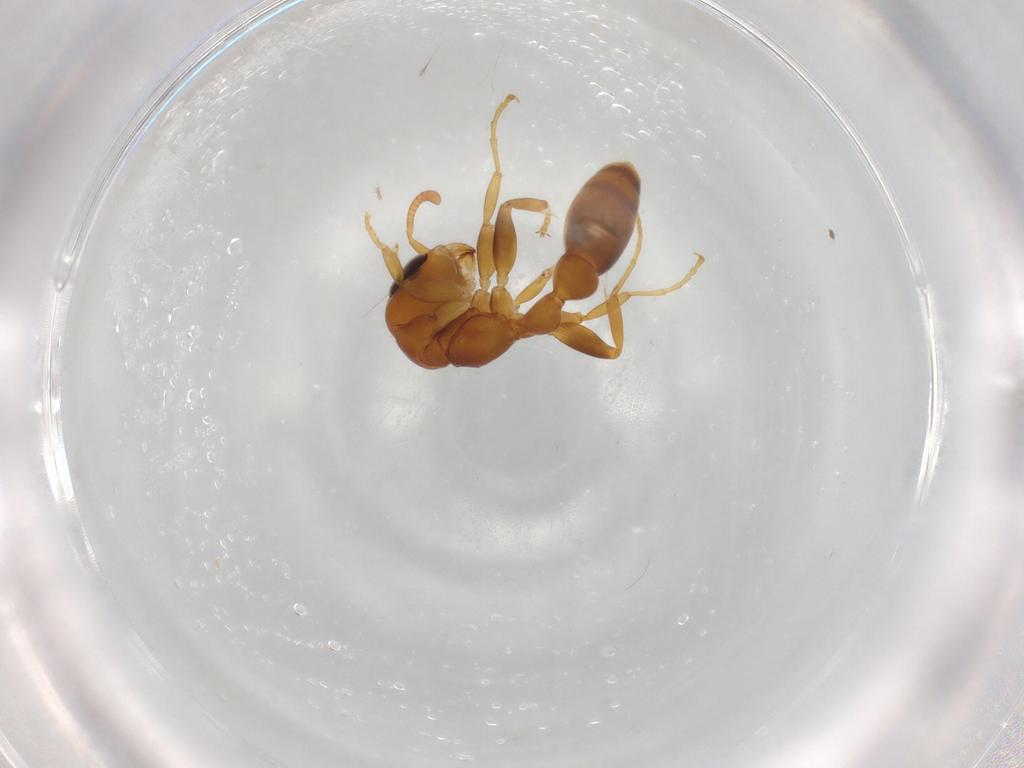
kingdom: Animalia
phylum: Arthropoda
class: Insecta
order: Hymenoptera
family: Formicidae
